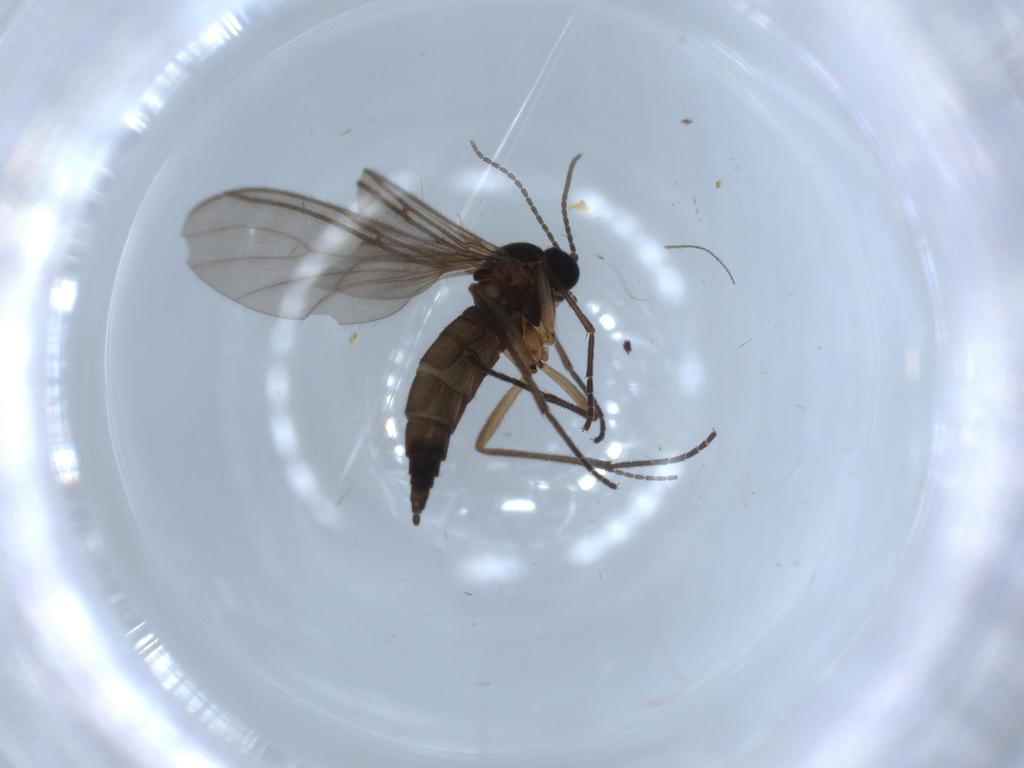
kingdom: Animalia
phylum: Arthropoda
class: Insecta
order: Diptera
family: Sciaridae
